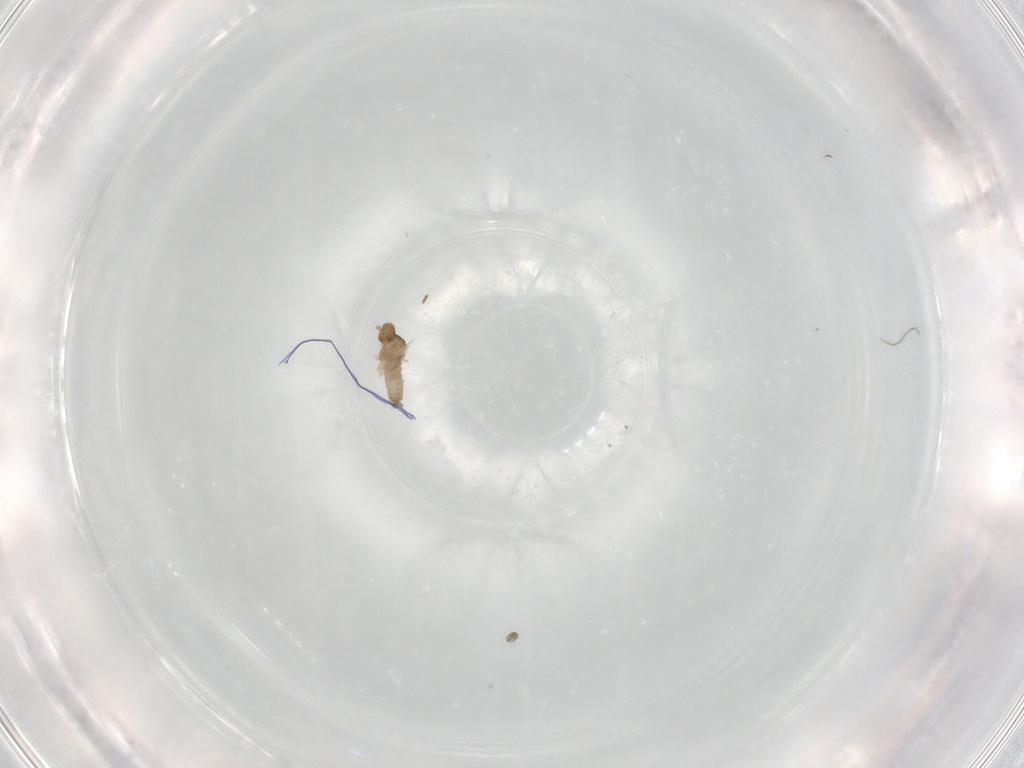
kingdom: Animalia
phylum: Arthropoda
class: Insecta
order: Diptera
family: Cecidomyiidae
